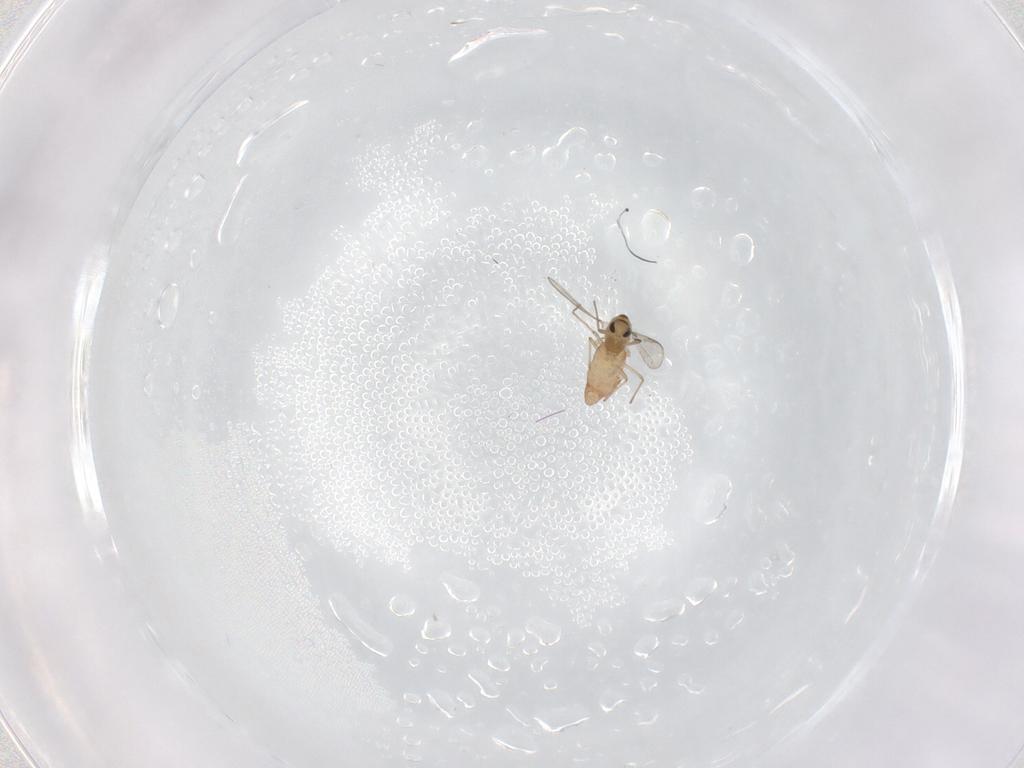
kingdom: Animalia
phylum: Arthropoda
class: Insecta
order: Diptera
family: Chironomidae
